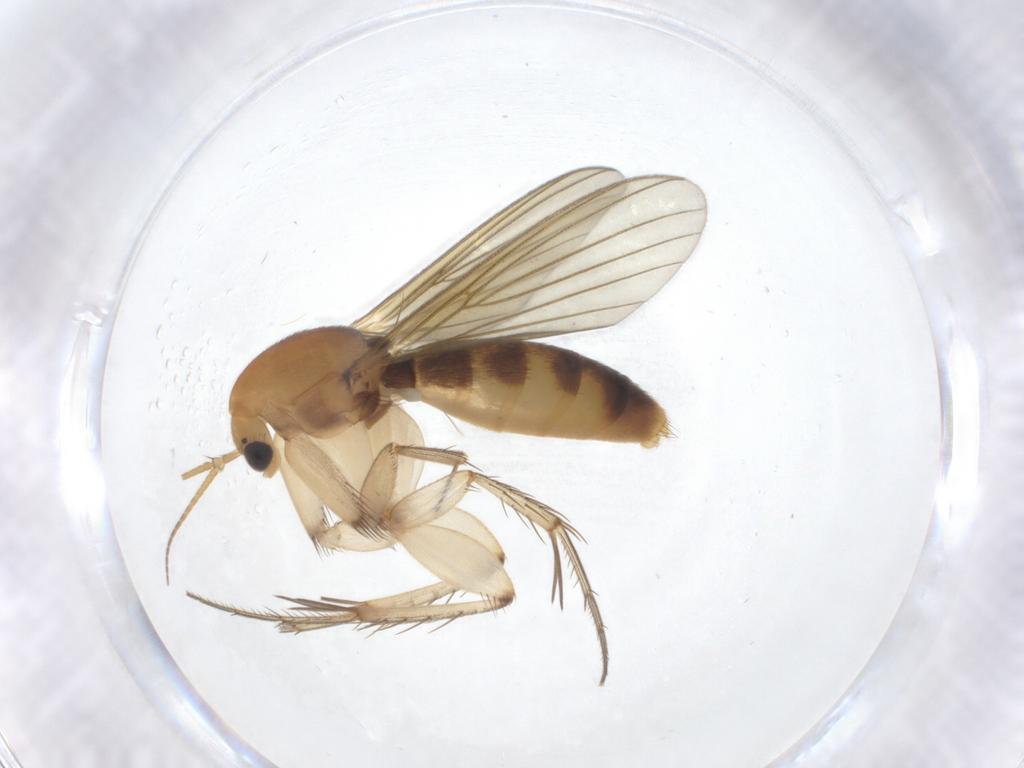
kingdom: Animalia
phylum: Arthropoda
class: Insecta
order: Diptera
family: Mycetophilidae
